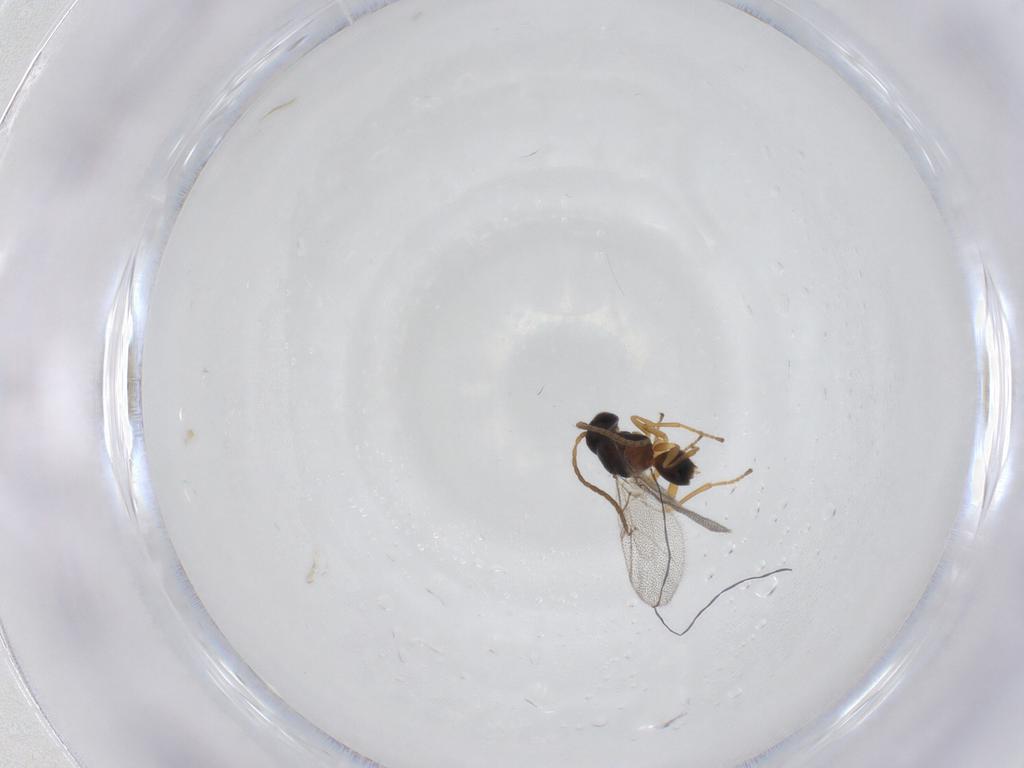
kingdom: Animalia
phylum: Arthropoda
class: Insecta
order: Hymenoptera
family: Cynipidae
